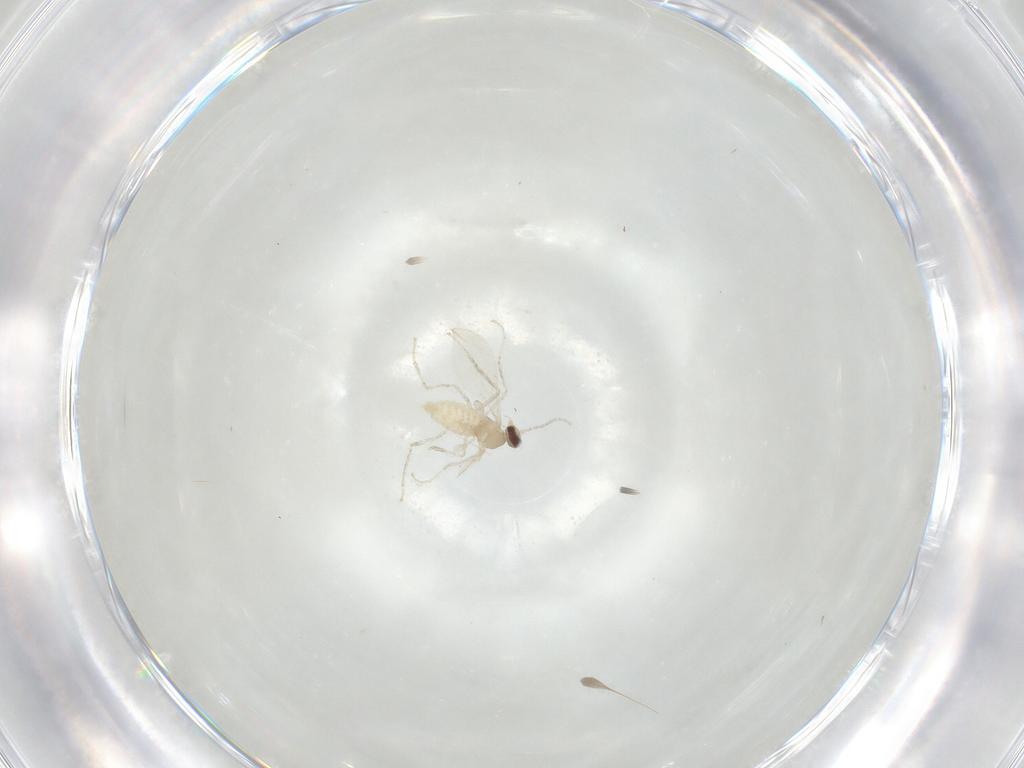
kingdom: Animalia
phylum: Arthropoda
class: Insecta
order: Diptera
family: Cecidomyiidae
